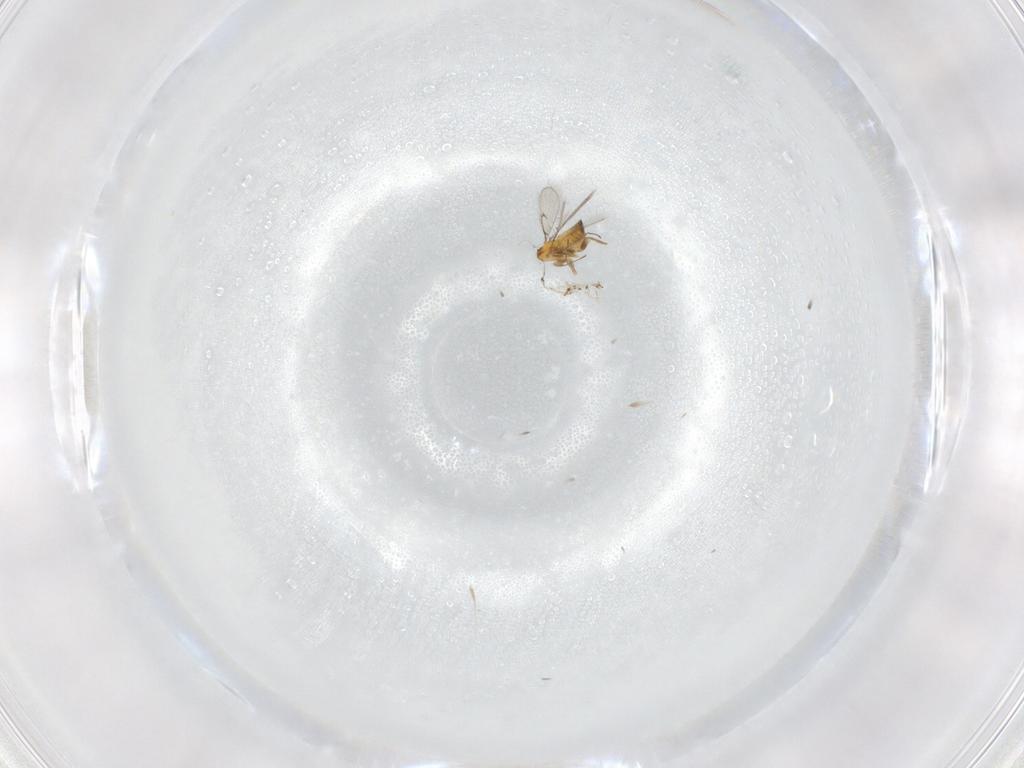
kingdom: Animalia
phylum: Arthropoda
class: Insecta
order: Hymenoptera
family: Trichogrammatidae
